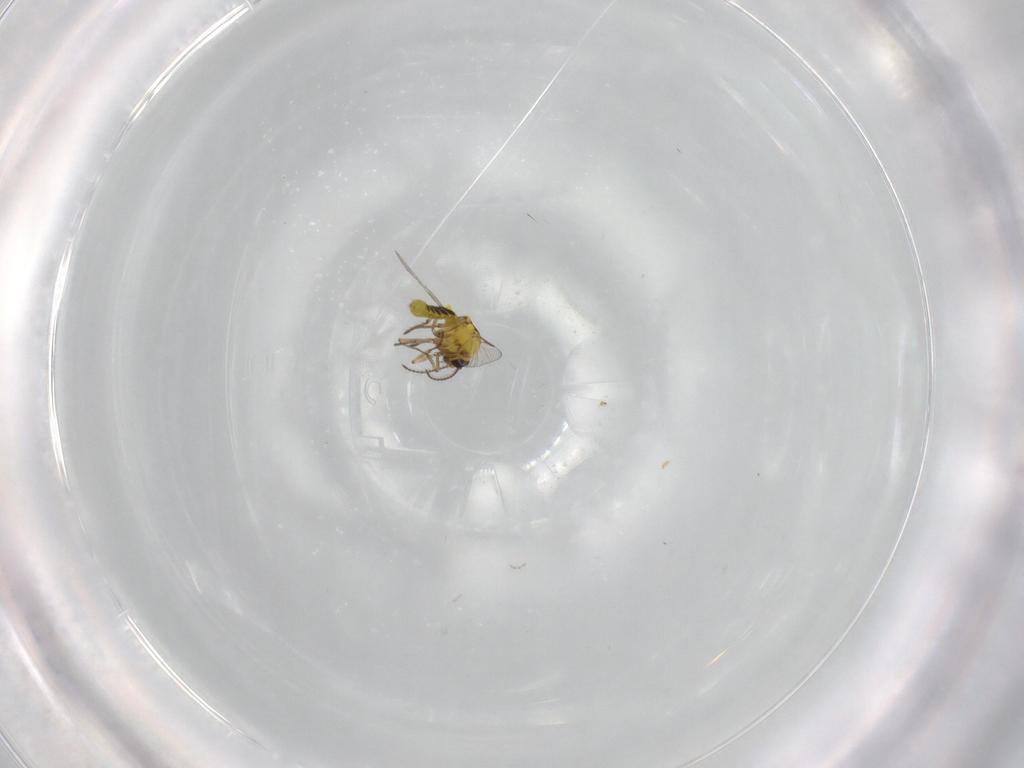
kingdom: Animalia
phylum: Arthropoda
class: Insecta
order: Diptera
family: Ceratopogonidae
